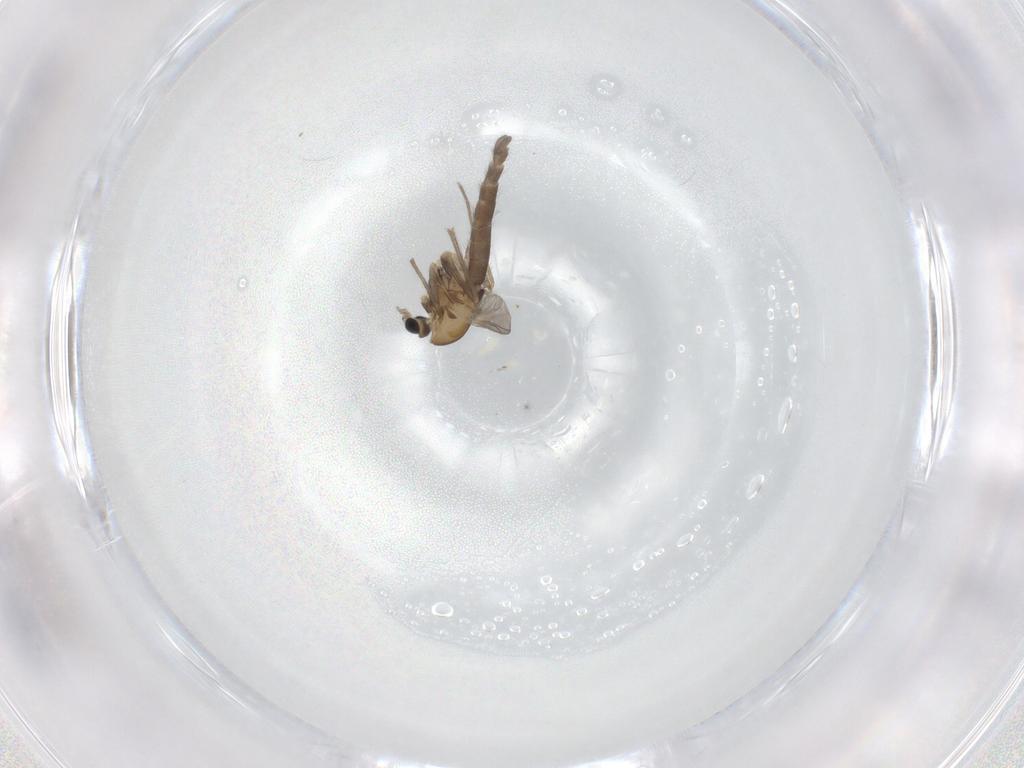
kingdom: Animalia
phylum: Arthropoda
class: Insecta
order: Diptera
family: Chironomidae
